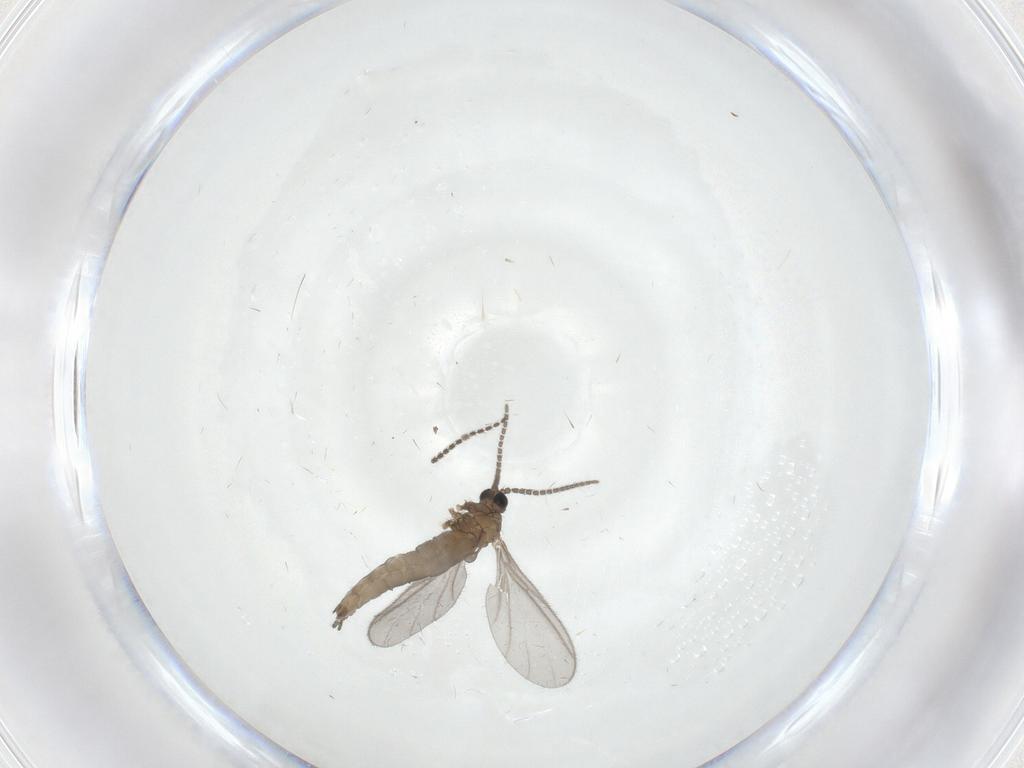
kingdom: Animalia
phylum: Arthropoda
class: Insecta
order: Diptera
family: Sciaridae
